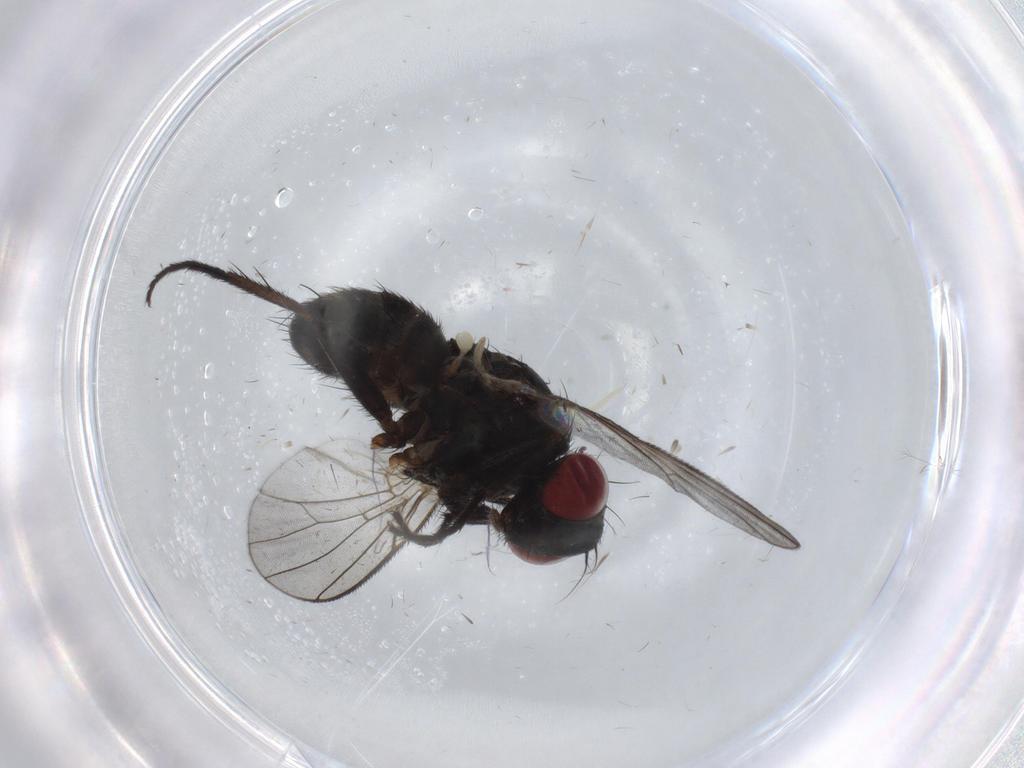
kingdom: Animalia
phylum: Arthropoda
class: Insecta
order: Diptera
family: Muscidae
